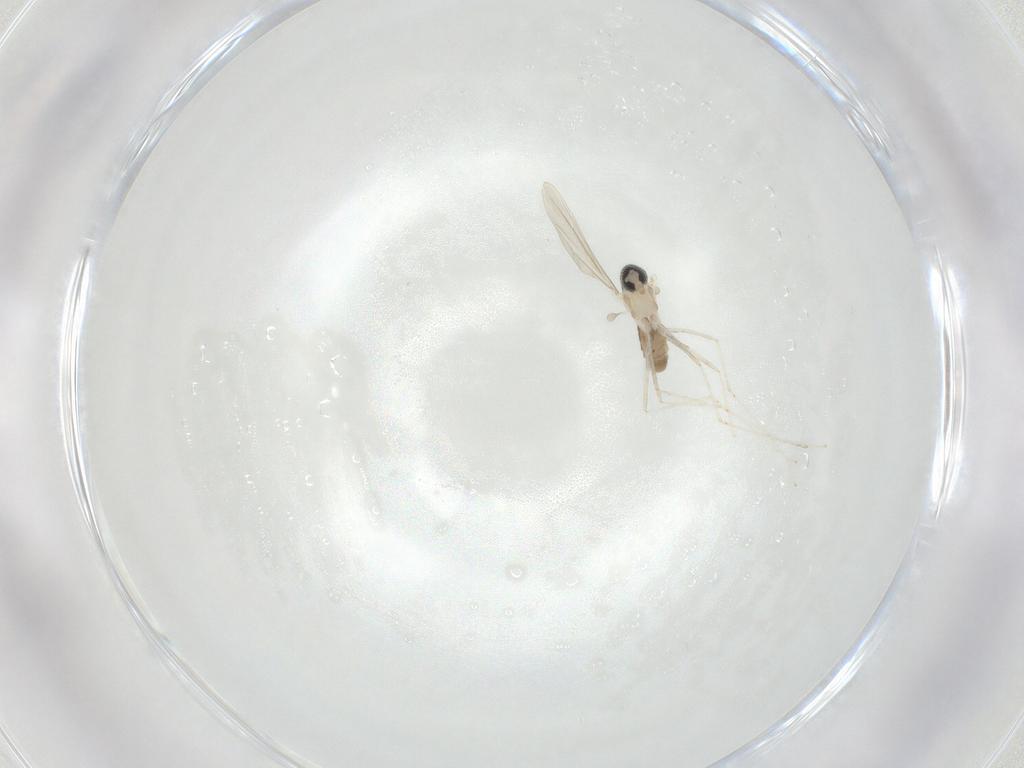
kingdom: Animalia
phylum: Arthropoda
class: Insecta
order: Diptera
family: Cecidomyiidae
